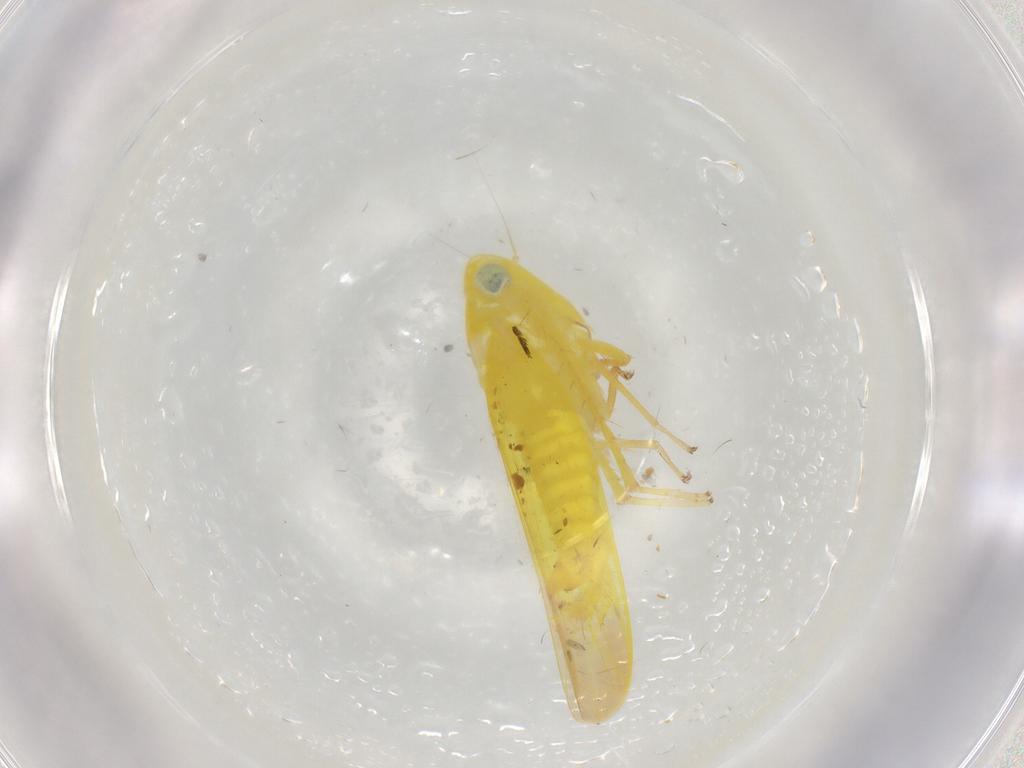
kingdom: Animalia
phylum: Arthropoda
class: Insecta
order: Hemiptera
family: Cicadellidae
